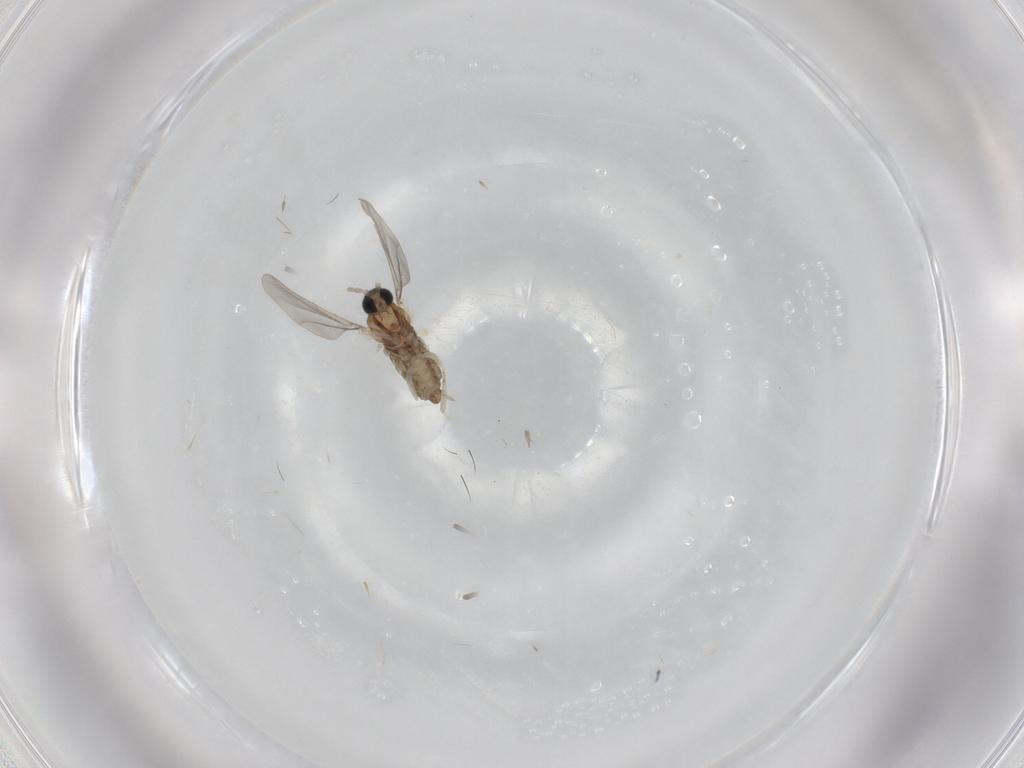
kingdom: Animalia
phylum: Arthropoda
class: Insecta
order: Diptera
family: Cecidomyiidae
